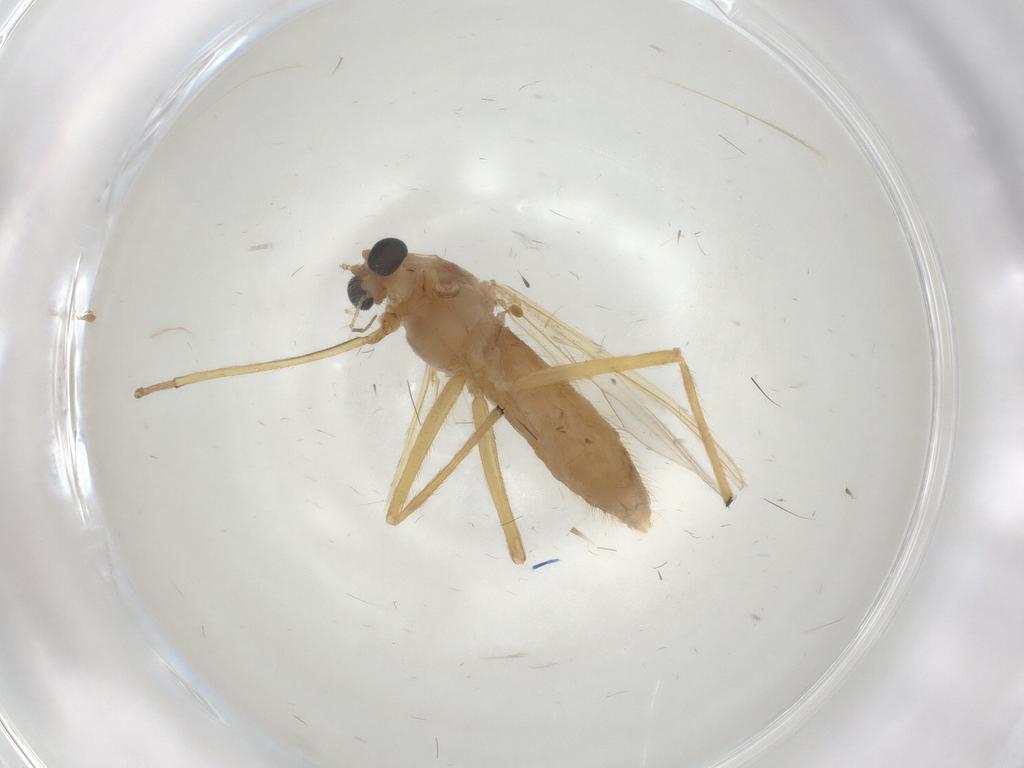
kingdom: Animalia
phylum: Arthropoda
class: Insecta
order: Diptera
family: Chironomidae
